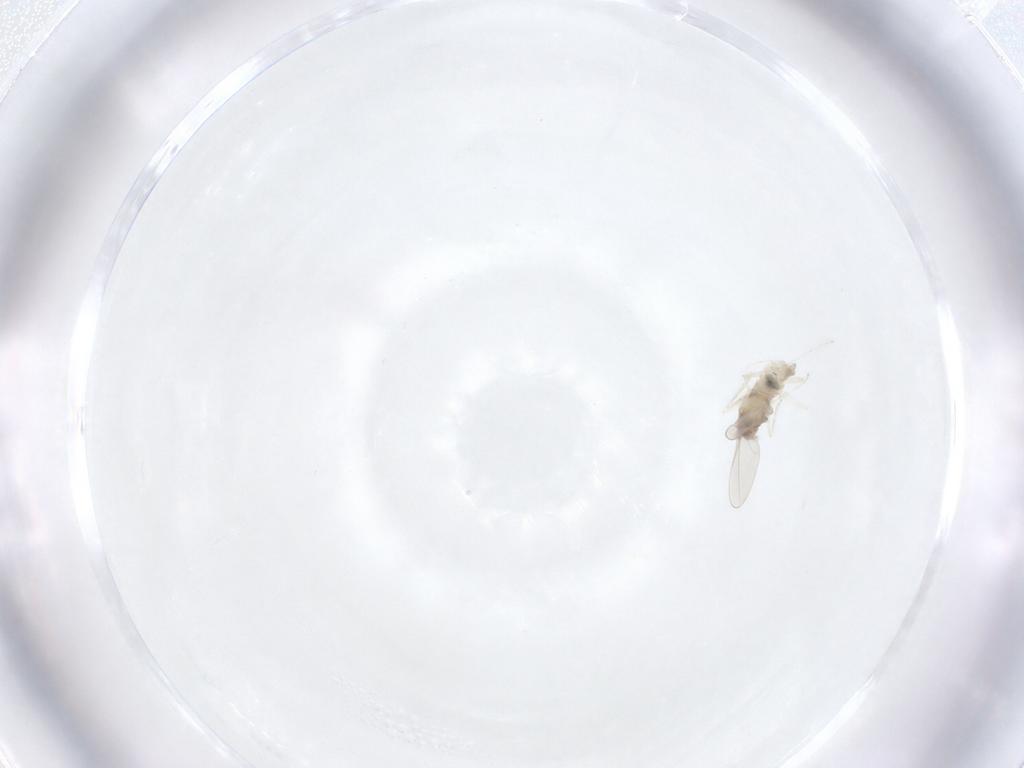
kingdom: Animalia
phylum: Arthropoda
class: Insecta
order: Diptera
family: Cecidomyiidae
